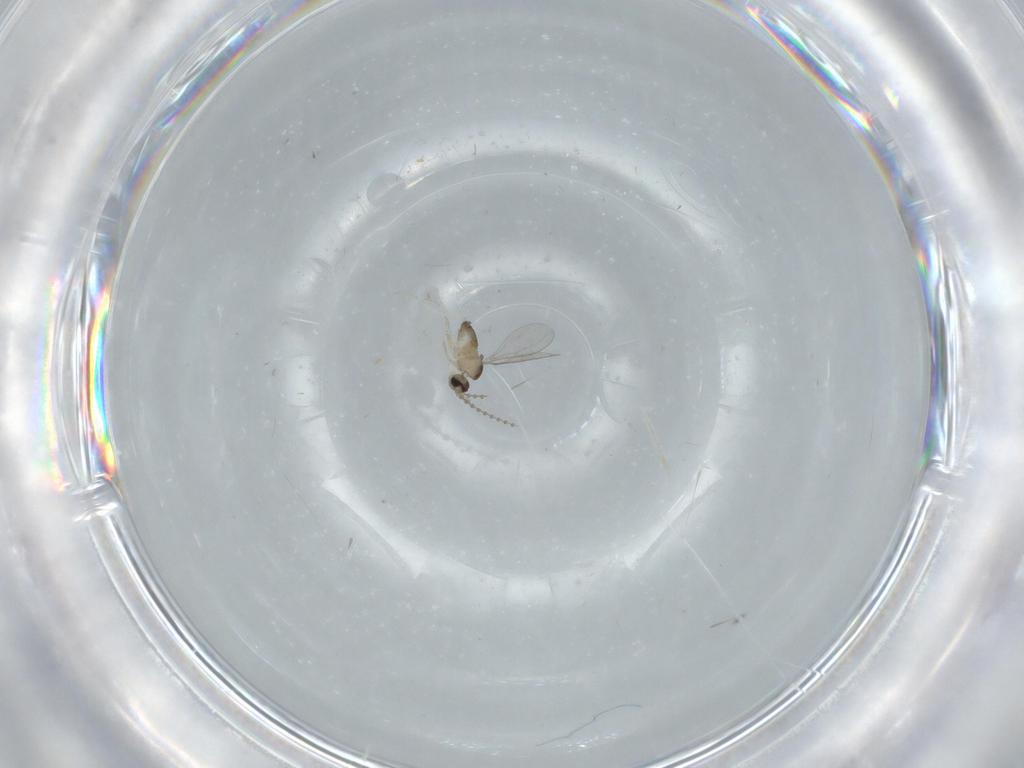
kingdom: Animalia
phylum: Arthropoda
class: Insecta
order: Diptera
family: Cecidomyiidae
